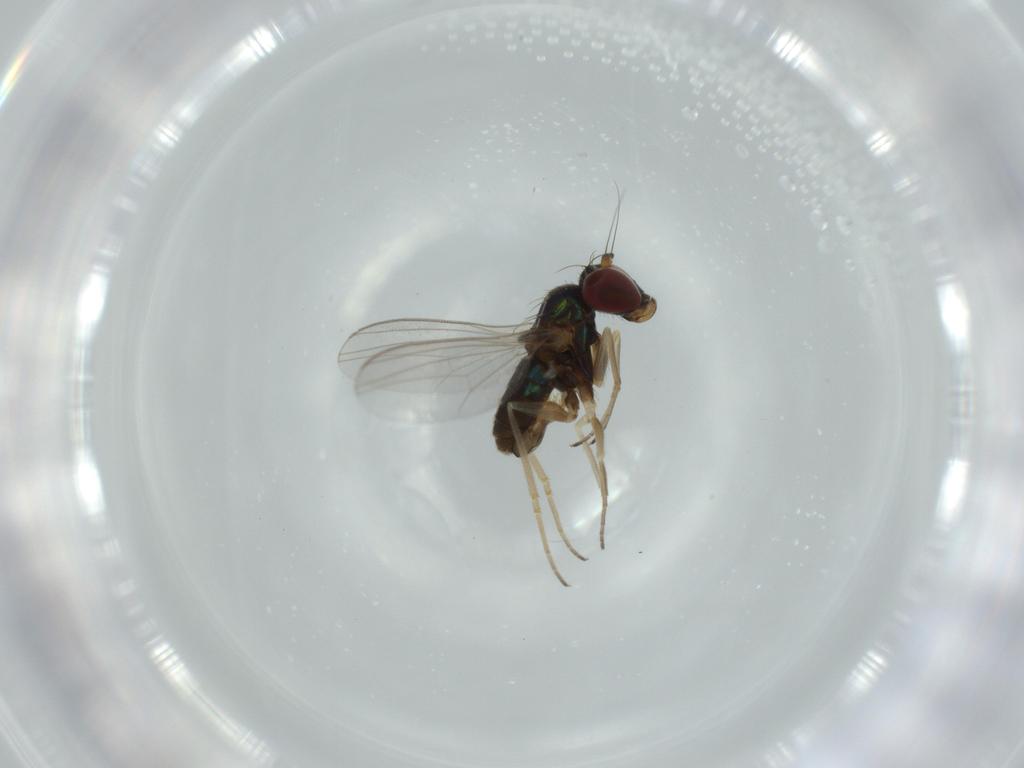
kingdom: Animalia
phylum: Arthropoda
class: Insecta
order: Diptera
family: Dolichopodidae
